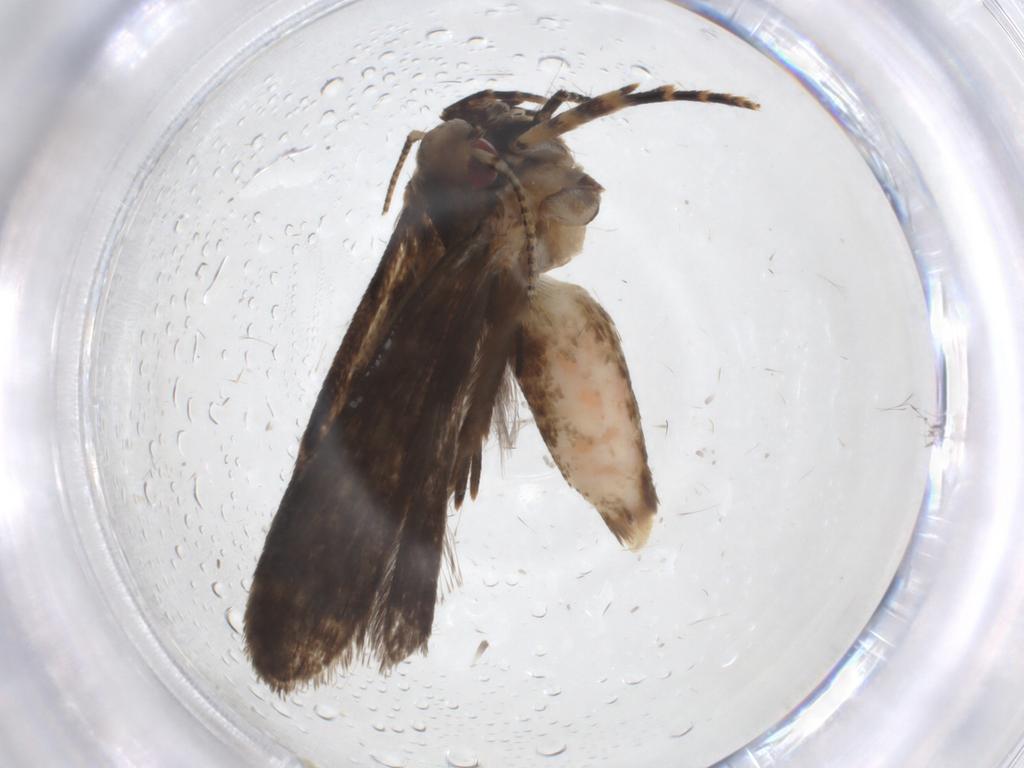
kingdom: Animalia
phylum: Arthropoda
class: Insecta
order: Lepidoptera
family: Gelechiidae
